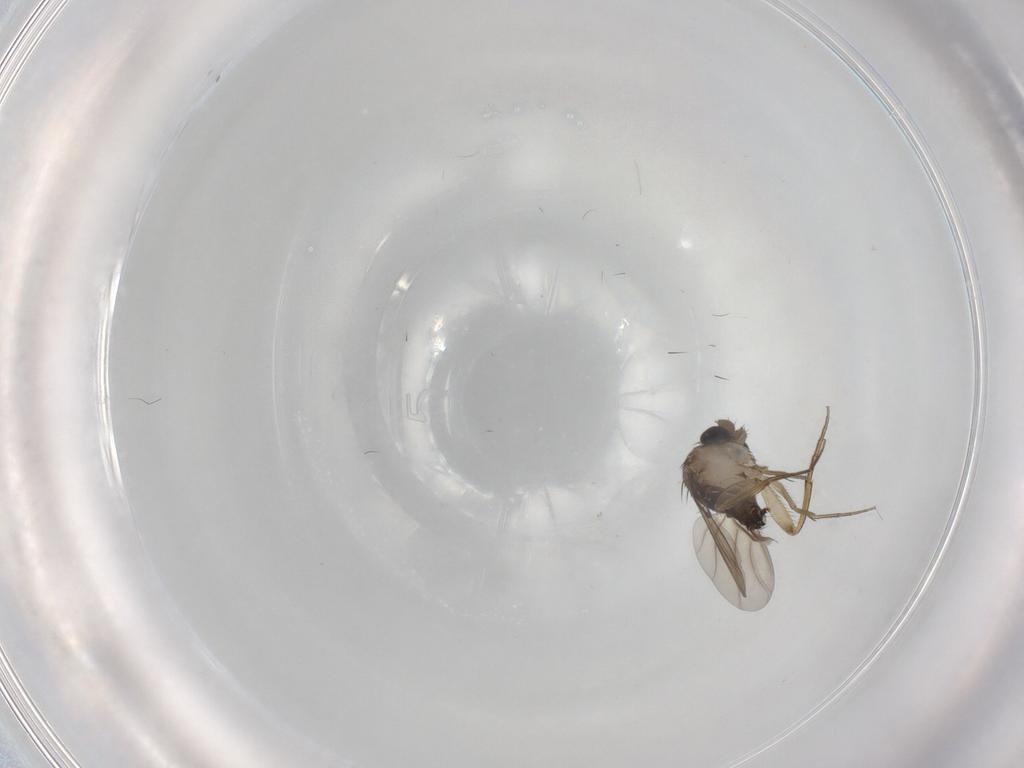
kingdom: Animalia
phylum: Arthropoda
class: Insecta
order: Diptera
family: Phoridae
